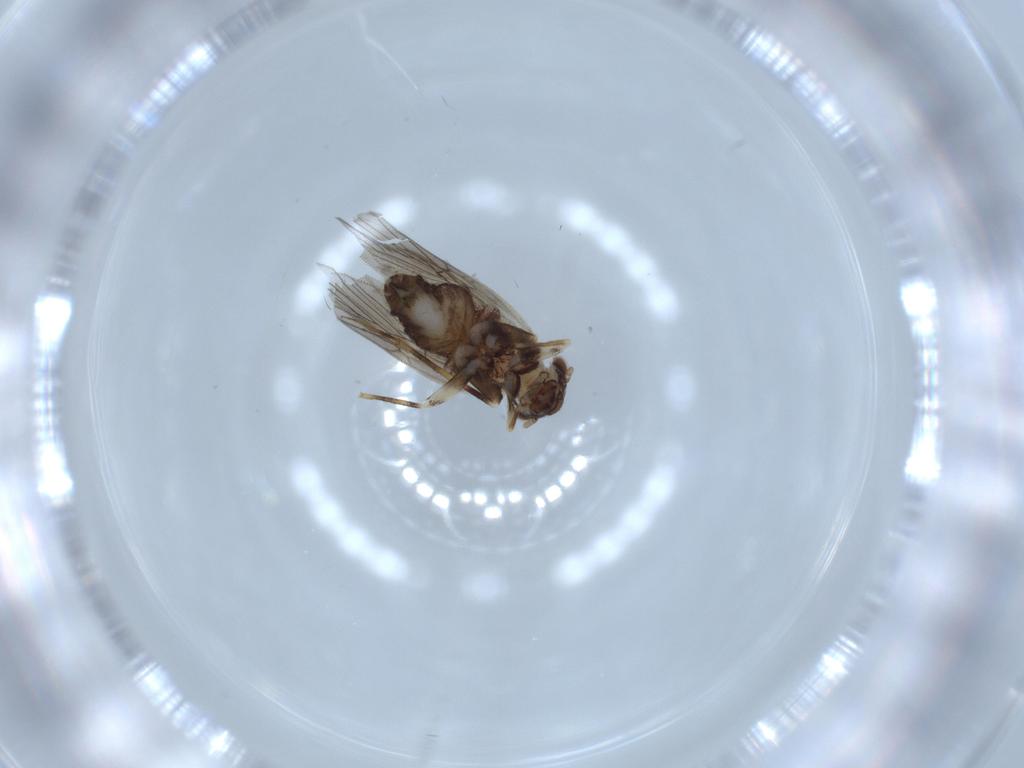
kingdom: Animalia
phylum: Arthropoda
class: Insecta
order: Psocodea
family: Lepidopsocidae
